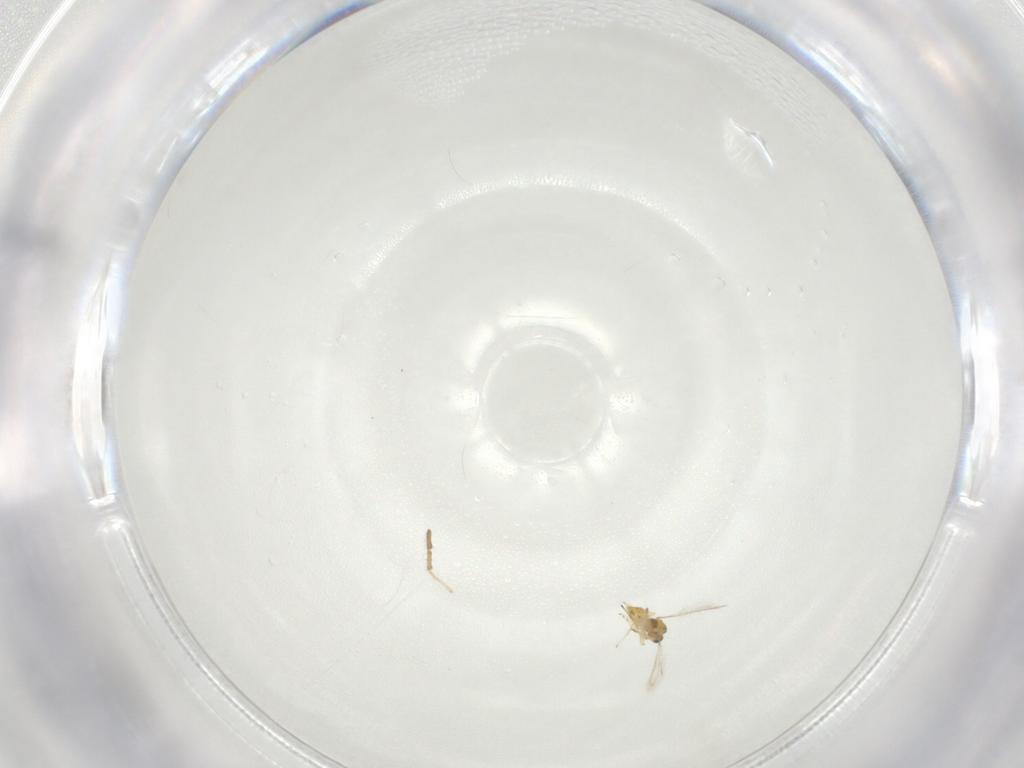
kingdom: Animalia
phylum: Arthropoda
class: Insecta
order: Hymenoptera
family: Mymaridae
